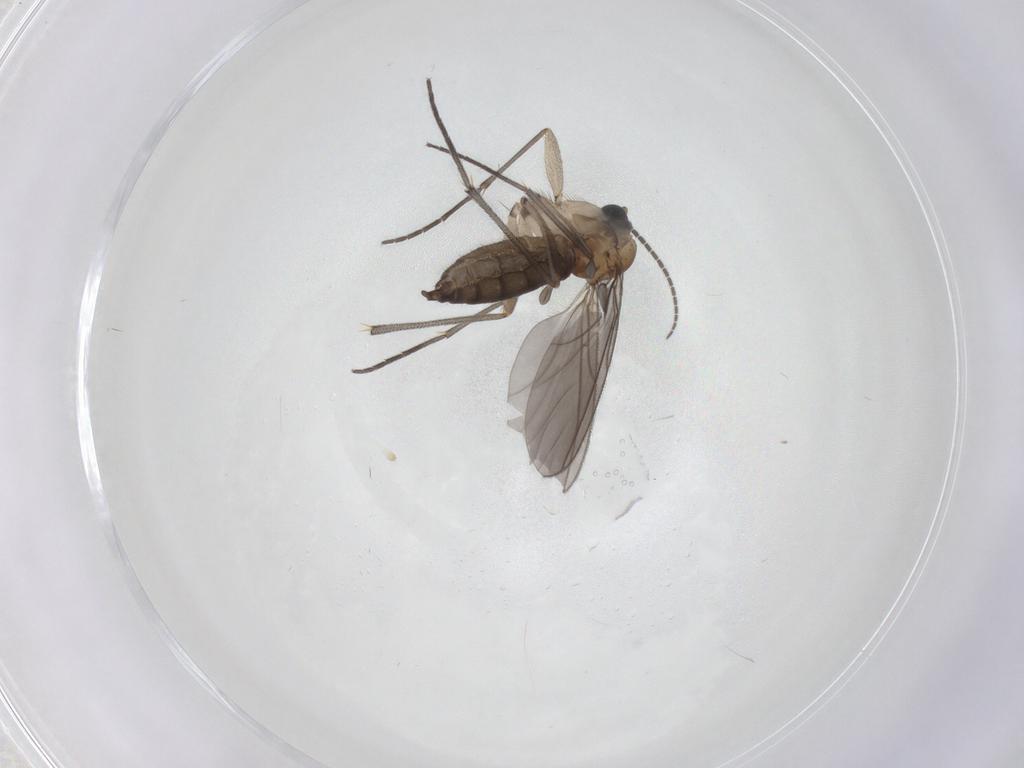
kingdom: Animalia
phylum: Arthropoda
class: Insecta
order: Diptera
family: Sciaridae
